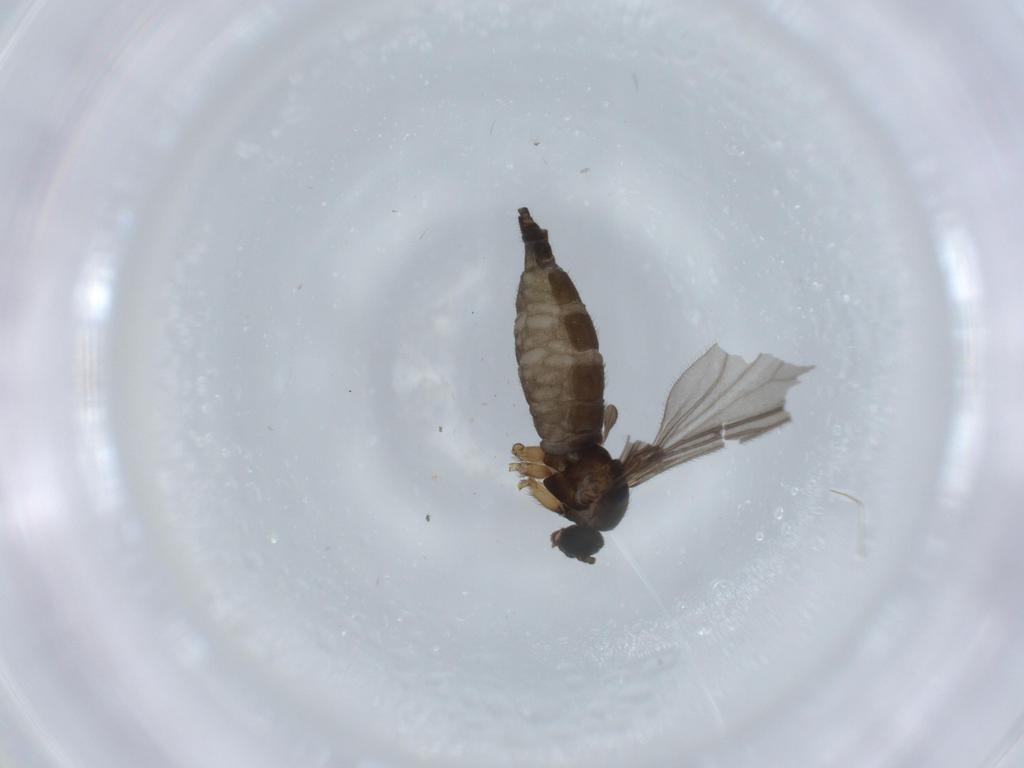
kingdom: Animalia
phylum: Arthropoda
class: Insecta
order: Diptera
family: Sciaridae
